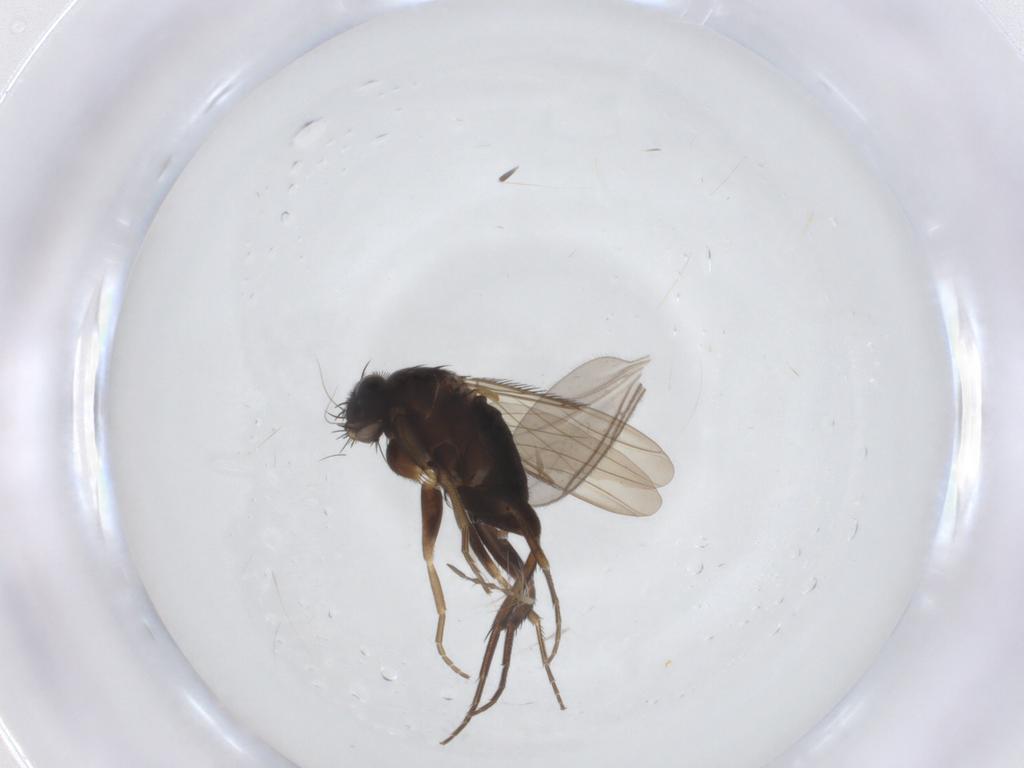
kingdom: Animalia
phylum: Arthropoda
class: Insecta
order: Diptera
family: Phoridae
